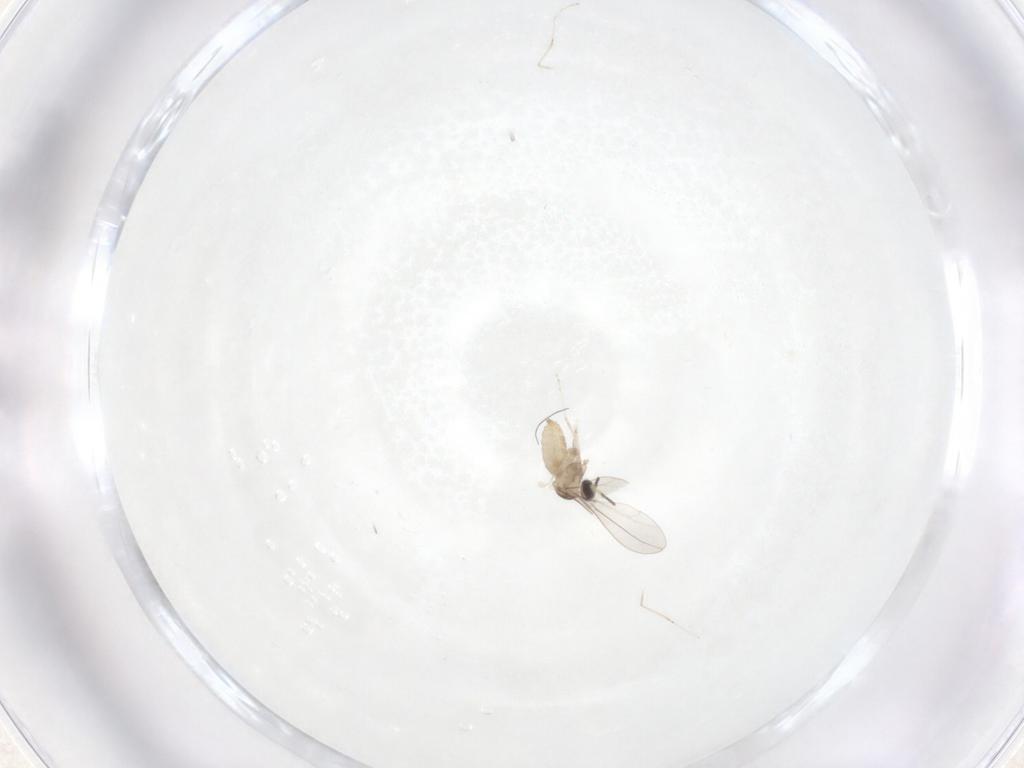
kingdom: Animalia
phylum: Arthropoda
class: Insecta
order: Diptera
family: Cecidomyiidae
